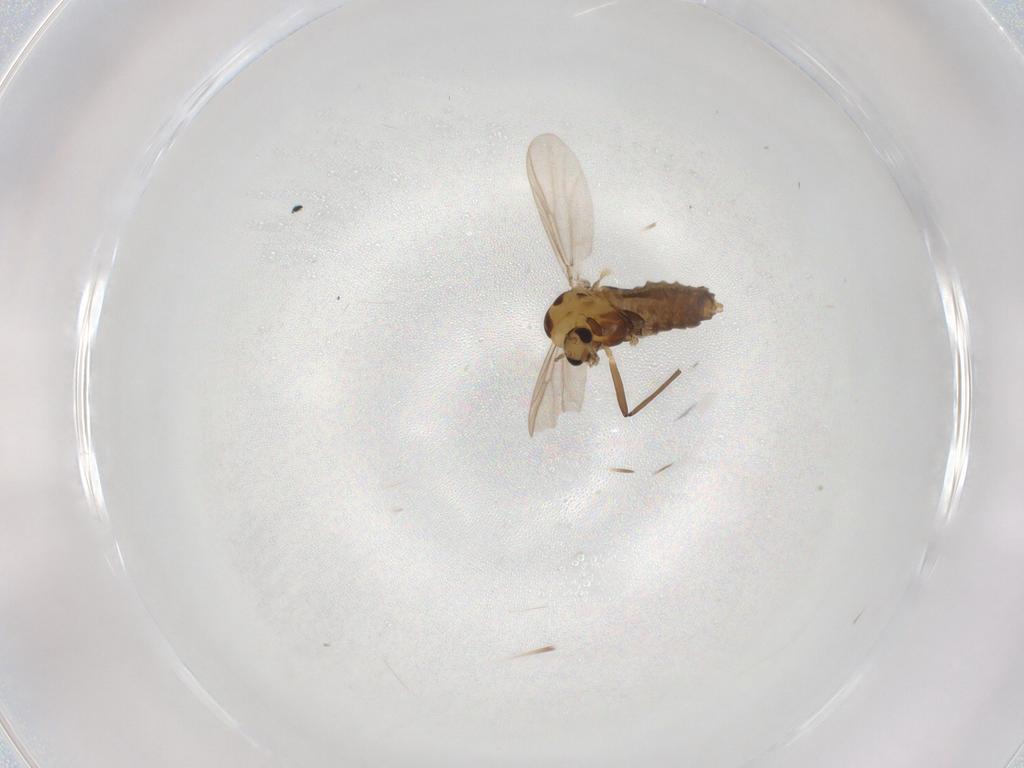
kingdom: Animalia
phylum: Arthropoda
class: Insecta
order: Diptera
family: Chironomidae
